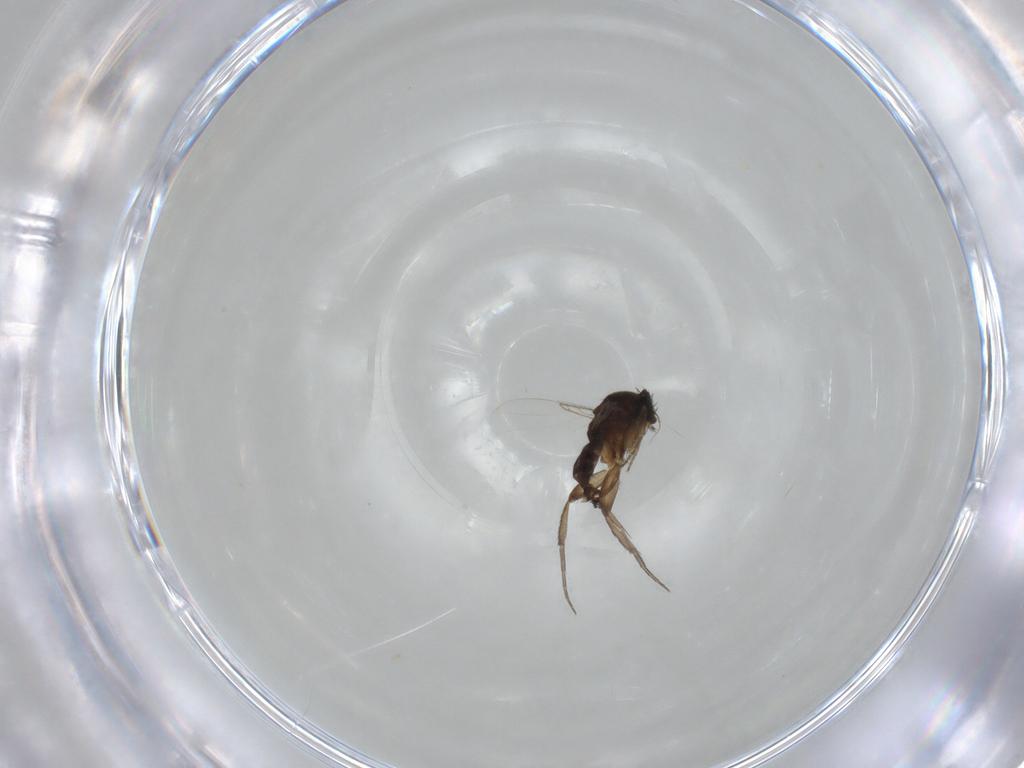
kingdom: Animalia
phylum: Arthropoda
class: Insecta
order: Diptera
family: Phoridae
